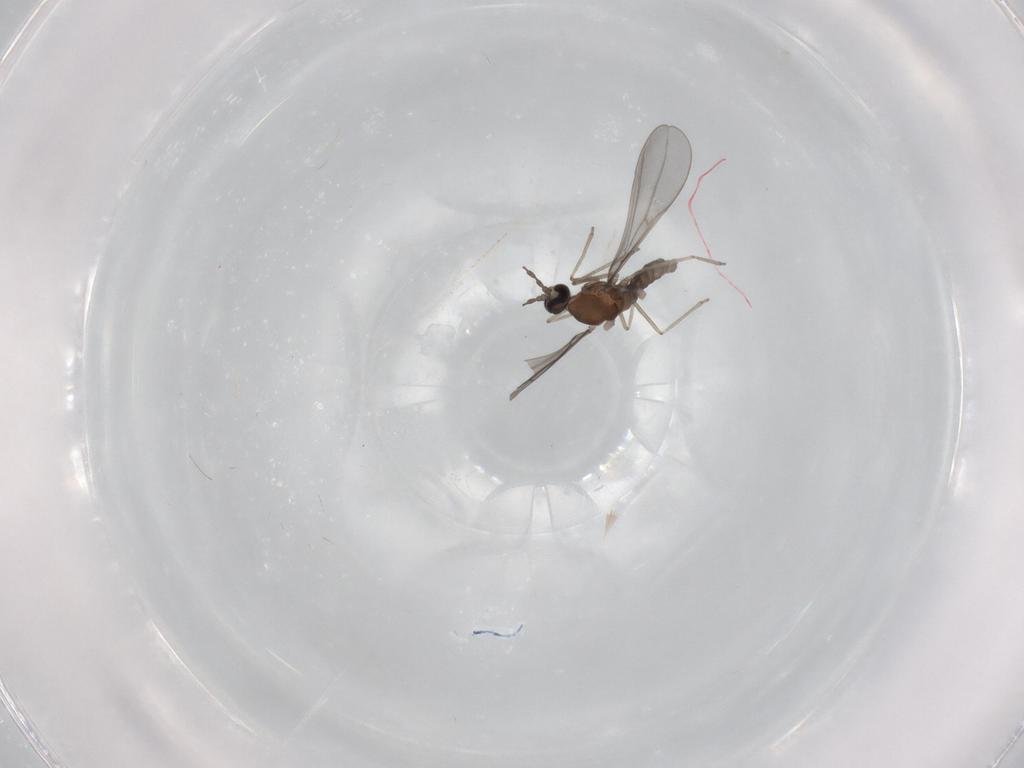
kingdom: Animalia
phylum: Arthropoda
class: Insecta
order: Diptera
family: Cecidomyiidae
